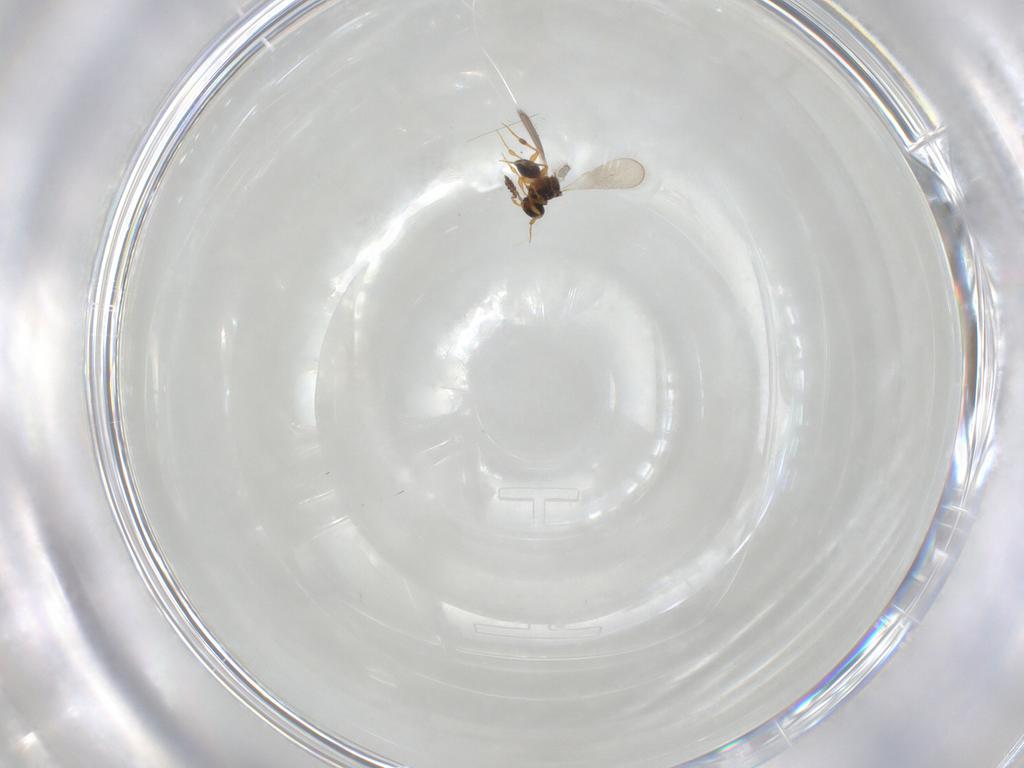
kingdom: Animalia
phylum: Arthropoda
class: Insecta
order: Hymenoptera
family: Platygastridae
